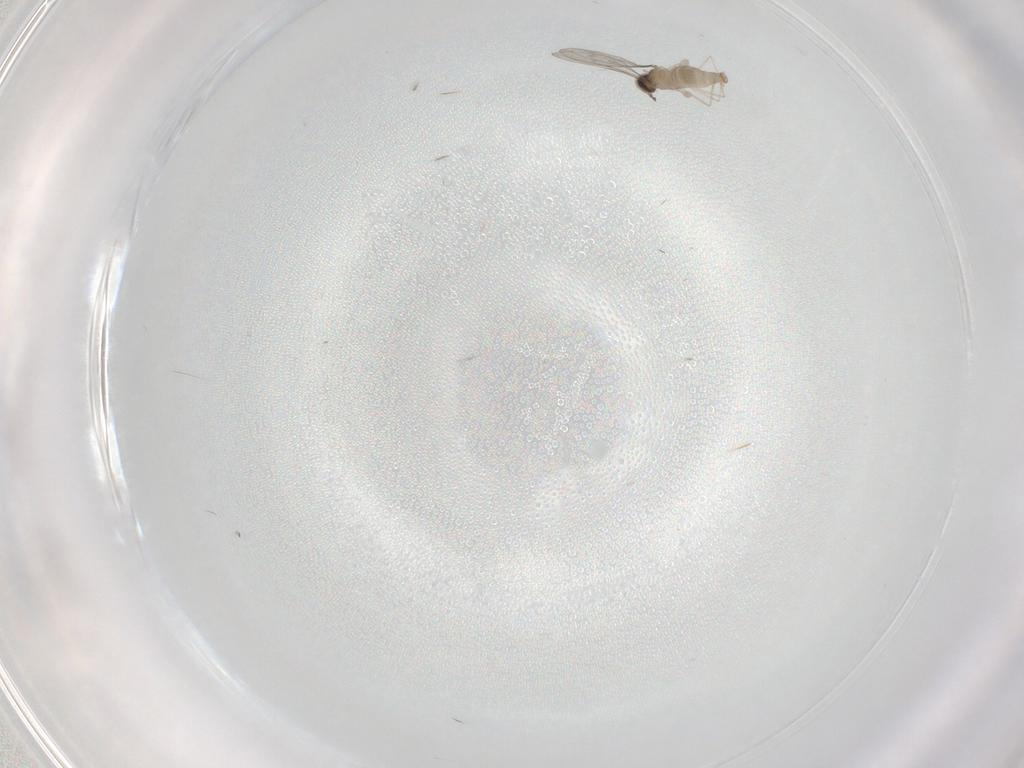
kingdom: Animalia
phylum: Arthropoda
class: Insecta
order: Diptera
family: Cecidomyiidae
